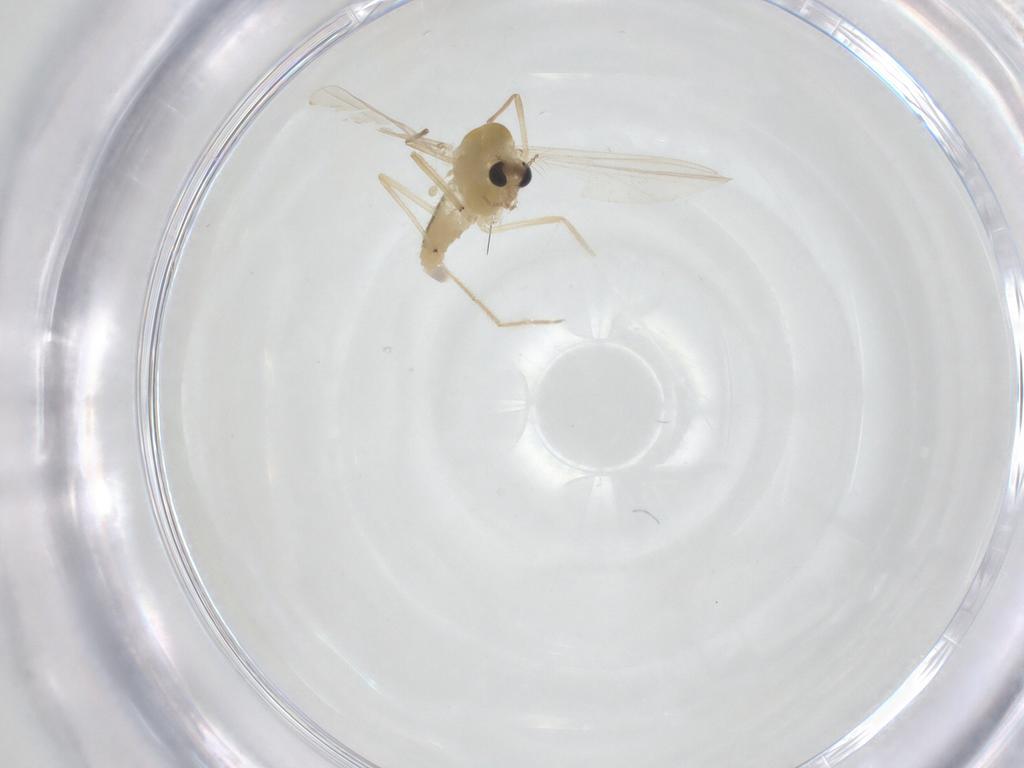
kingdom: Animalia
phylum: Arthropoda
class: Insecta
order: Diptera
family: Chironomidae
